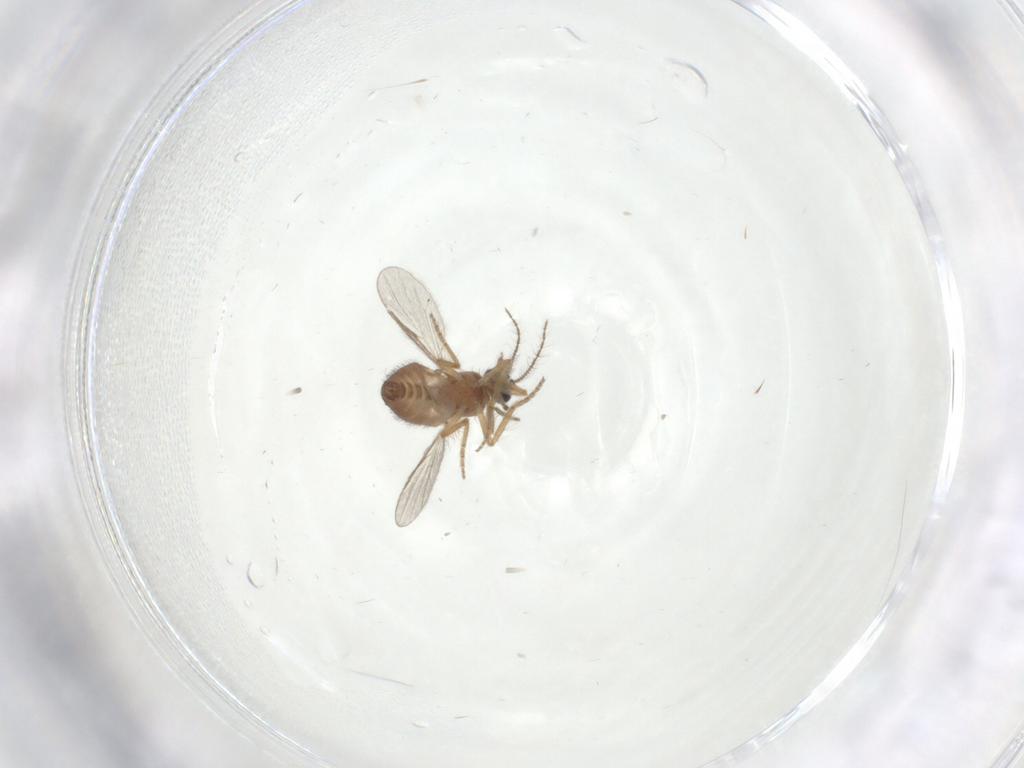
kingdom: Animalia
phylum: Arthropoda
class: Insecta
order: Diptera
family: Ceratopogonidae
